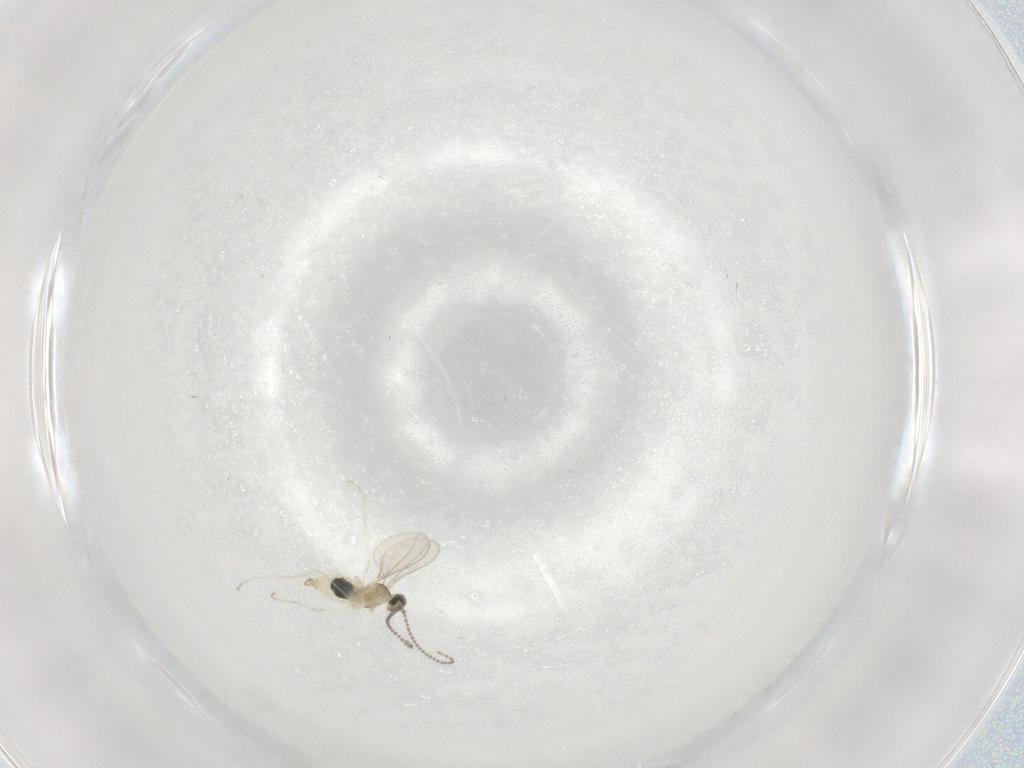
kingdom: Animalia
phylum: Arthropoda
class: Insecta
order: Diptera
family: Cecidomyiidae
